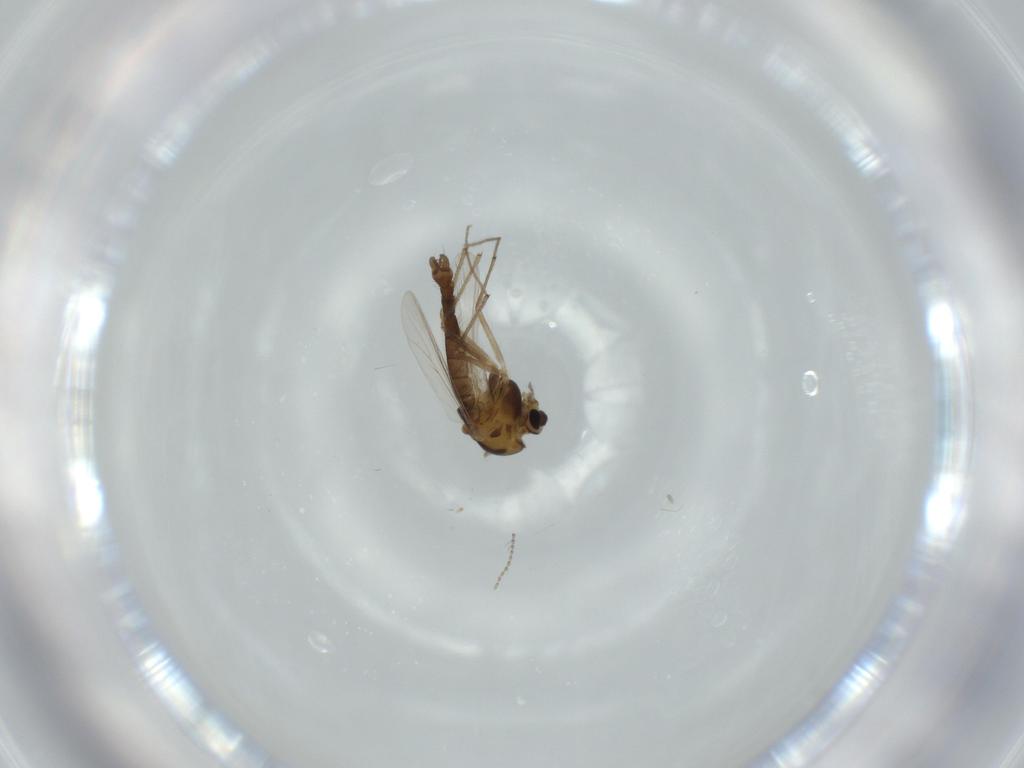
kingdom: Animalia
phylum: Arthropoda
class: Insecta
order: Diptera
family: Chironomidae
